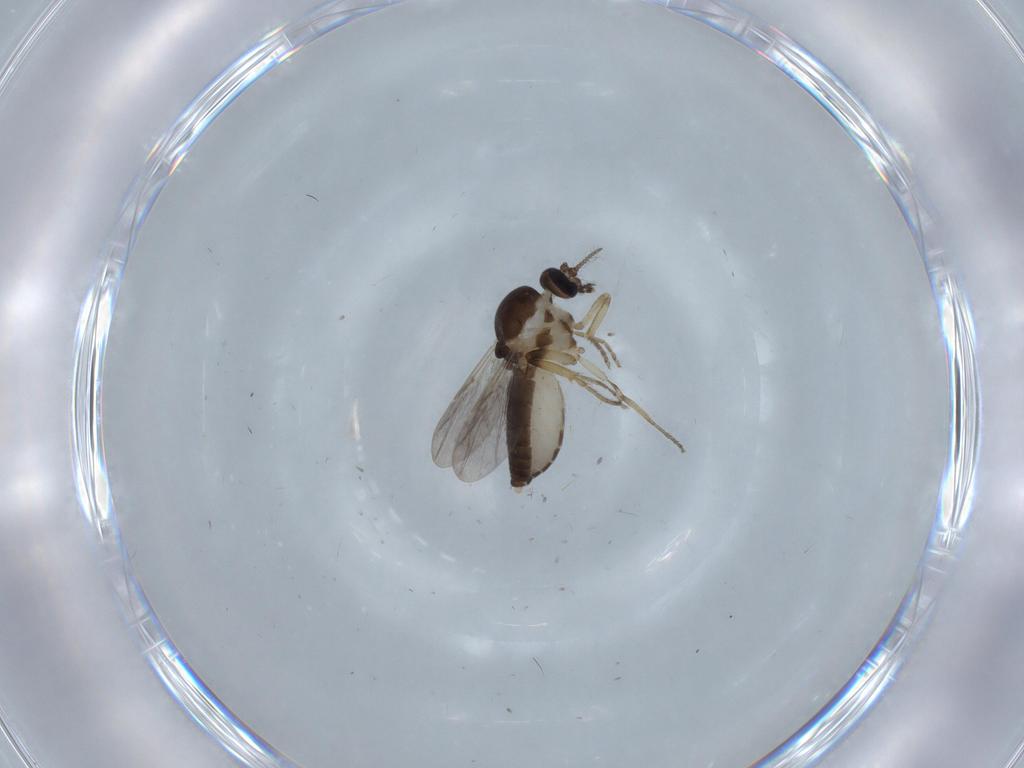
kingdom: Animalia
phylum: Arthropoda
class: Insecta
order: Diptera
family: Ceratopogonidae
